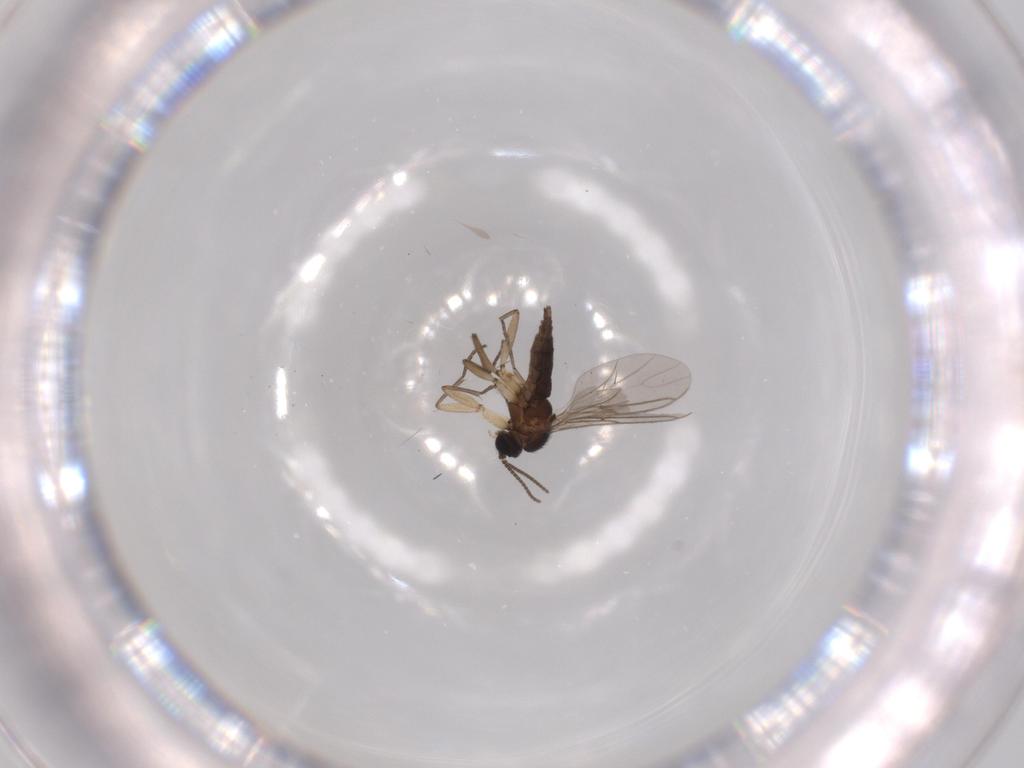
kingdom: Animalia
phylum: Arthropoda
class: Insecta
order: Diptera
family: Sciaridae
